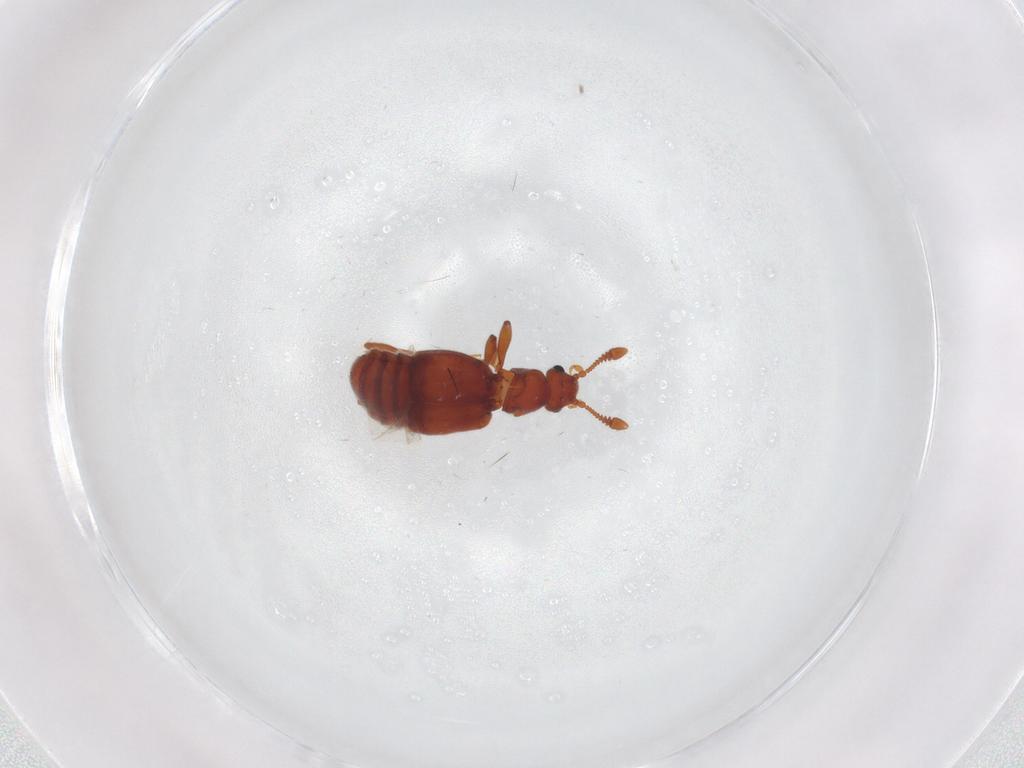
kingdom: Animalia
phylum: Arthropoda
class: Insecta
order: Coleoptera
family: Staphylinidae
